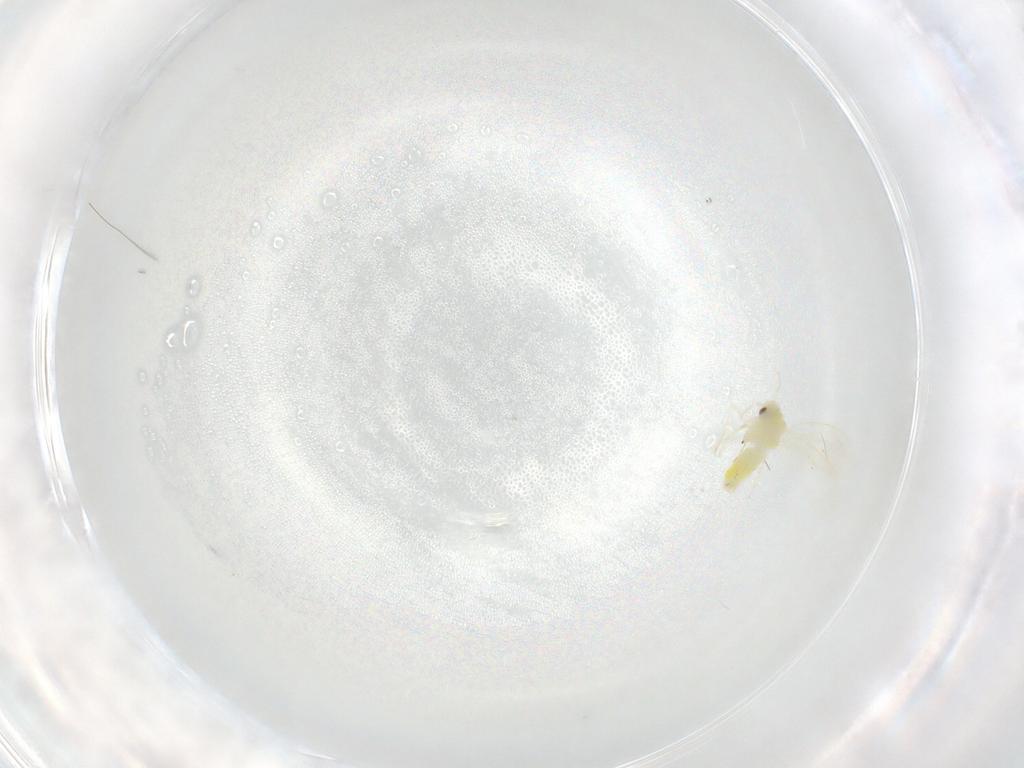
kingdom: Animalia
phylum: Arthropoda
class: Insecta
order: Hemiptera
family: Aleyrodidae
